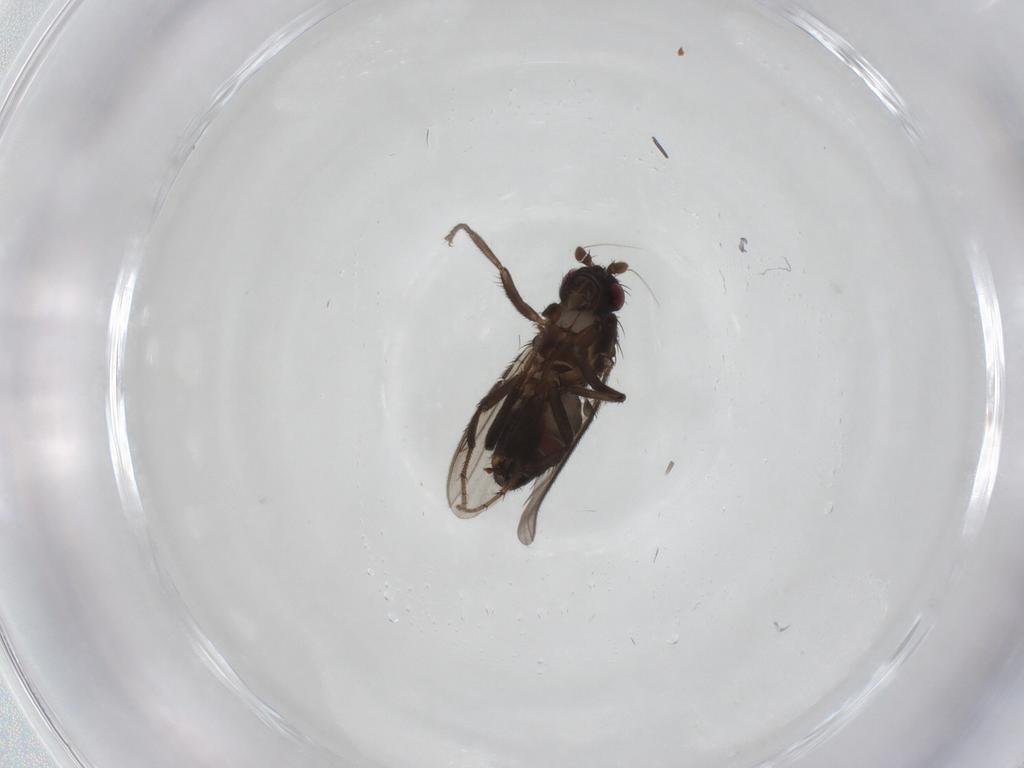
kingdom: Animalia
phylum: Arthropoda
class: Insecta
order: Diptera
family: Sphaeroceridae
